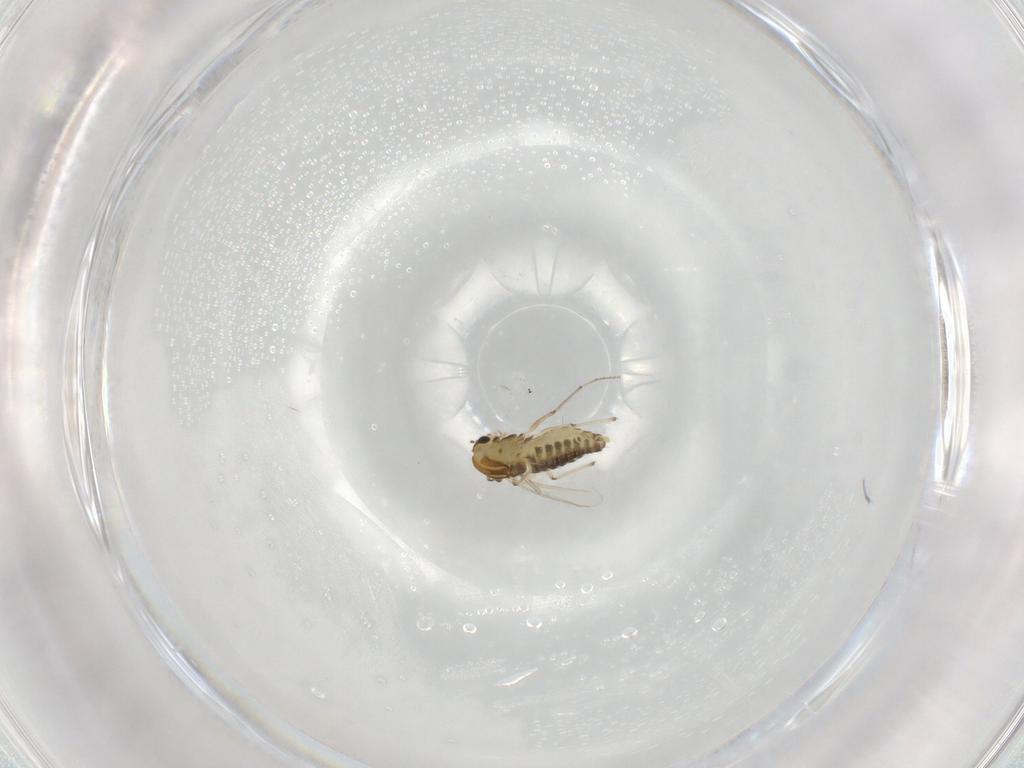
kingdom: Animalia
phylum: Arthropoda
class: Insecta
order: Diptera
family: Chironomidae
